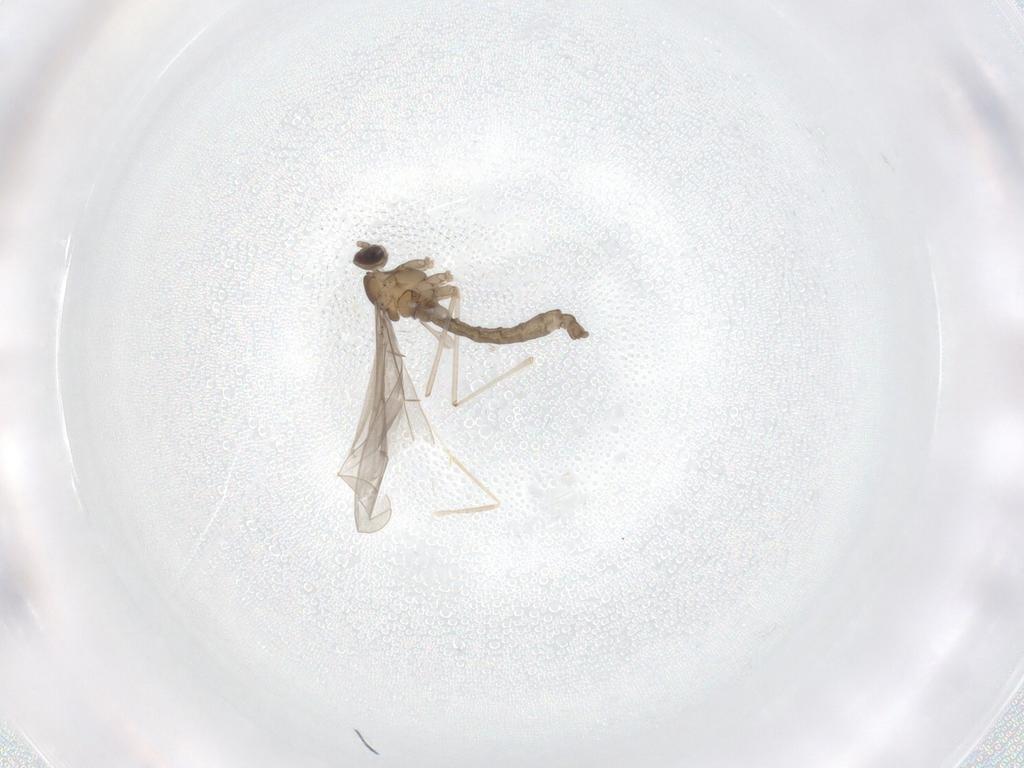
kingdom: Animalia
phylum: Arthropoda
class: Insecta
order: Diptera
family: Cecidomyiidae
